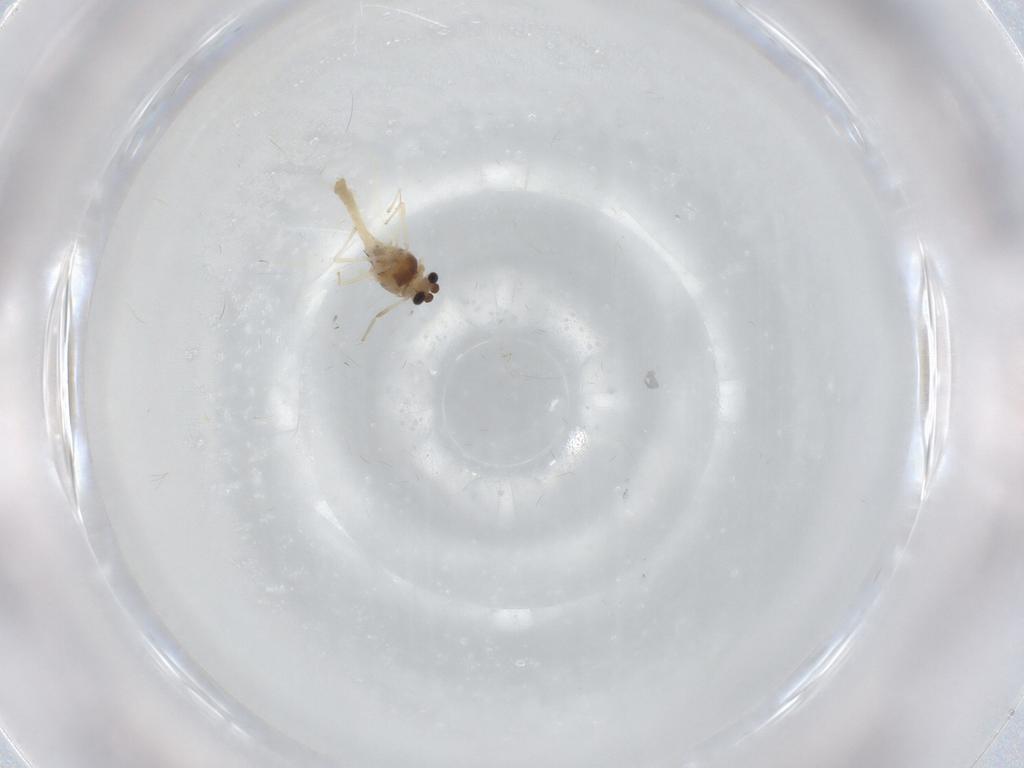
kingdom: Animalia
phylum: Arthropoda
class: Insecta
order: Diptera
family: Chironomidae
